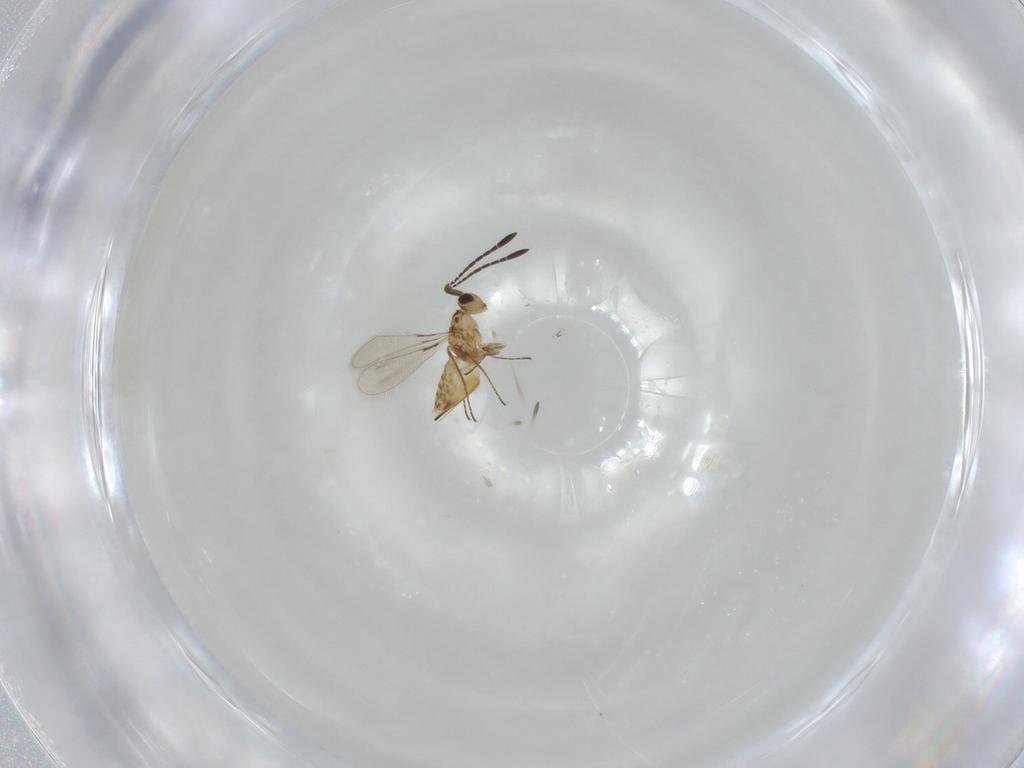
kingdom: Animalia
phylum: Arthropoda
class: Insecta
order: Hymenoptera
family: Mymaridae
